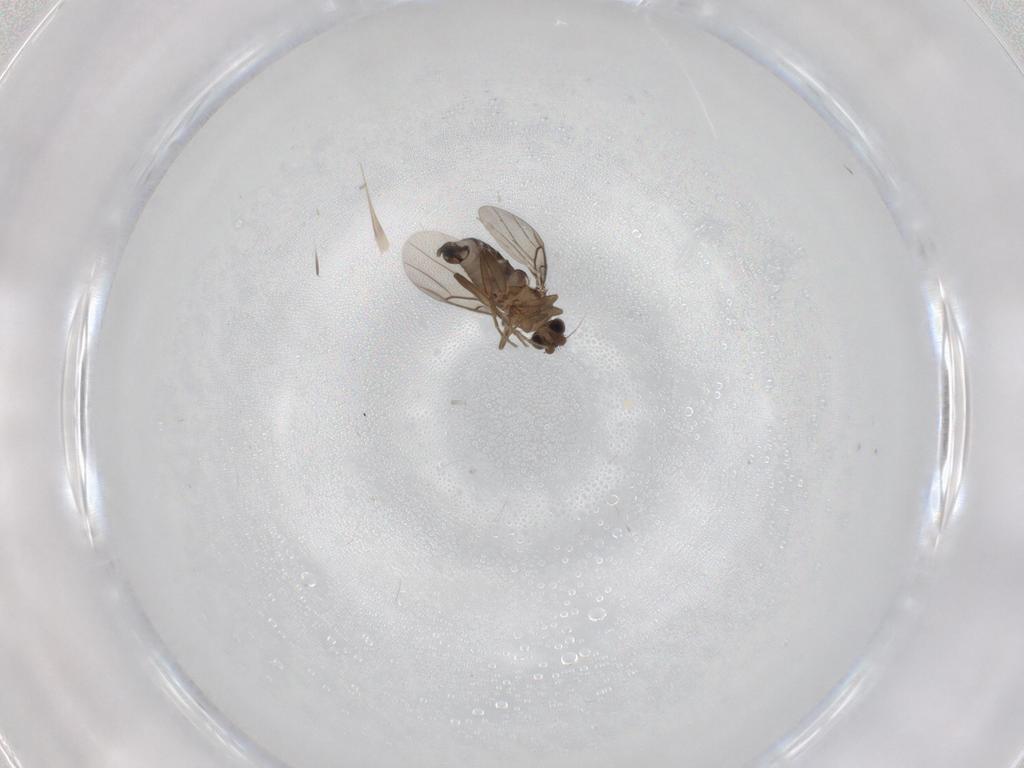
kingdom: Animalia
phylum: Arthropoda
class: Insecta
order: Diptera
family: Phoridae
